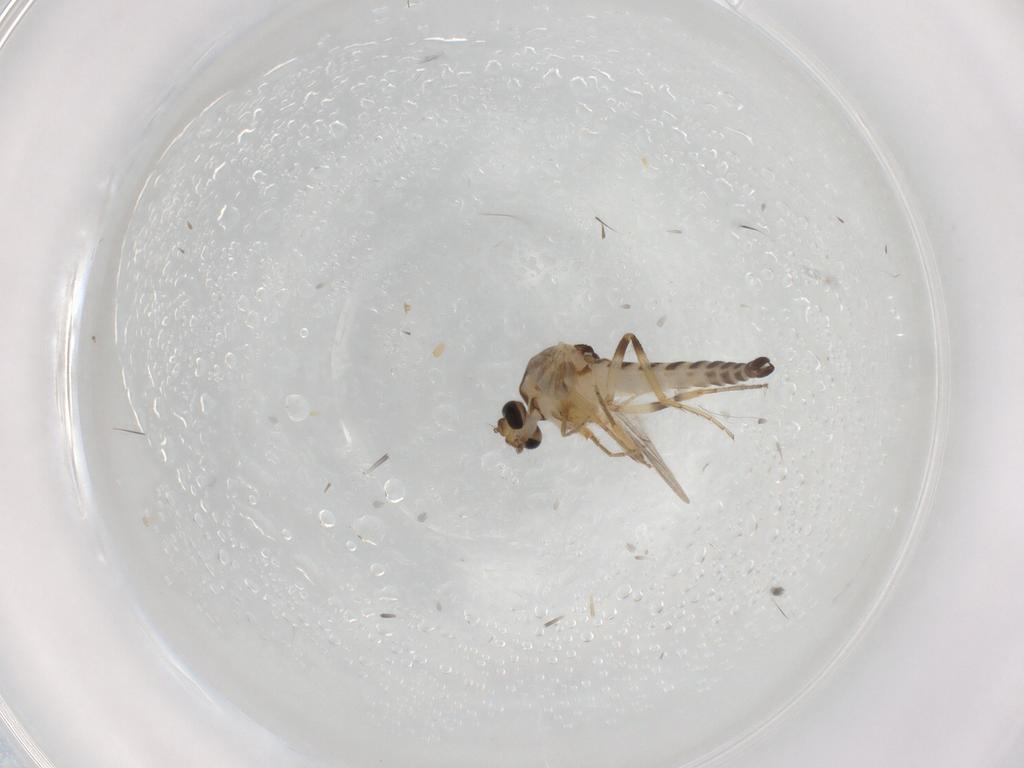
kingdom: Animalia
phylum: Arthropoda
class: Insecta
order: Diptera
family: Ceratopogonidae
